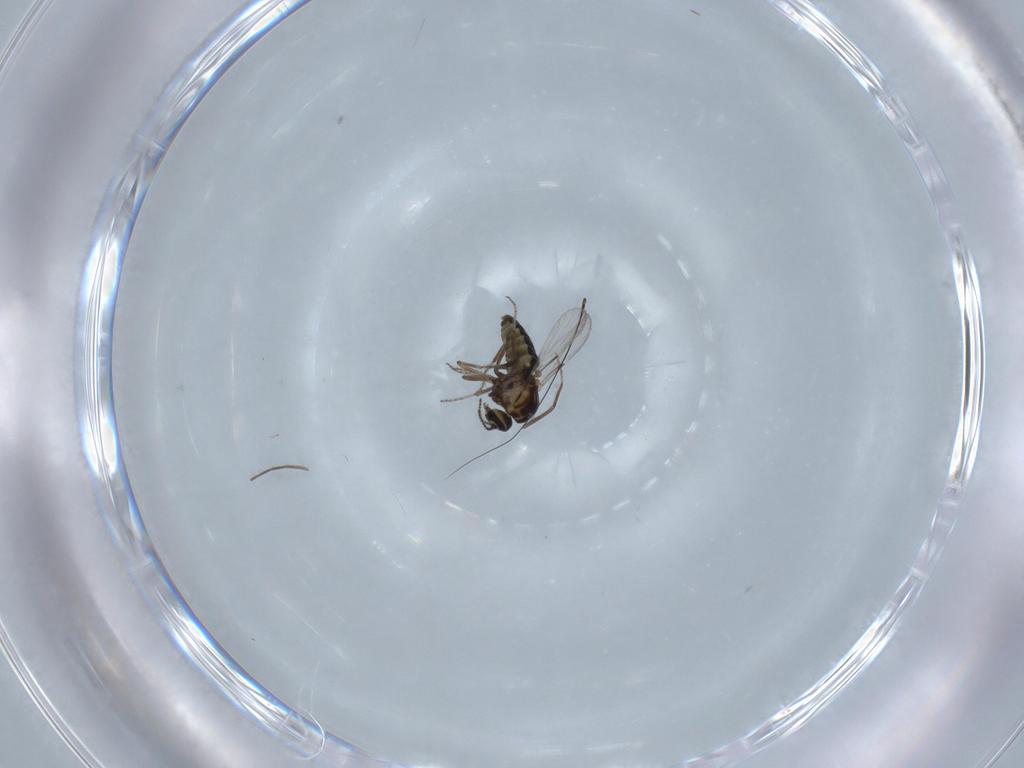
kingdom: Animalia
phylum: Arthropoda
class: Insecta
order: Diptera
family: Ceratopogonidae
